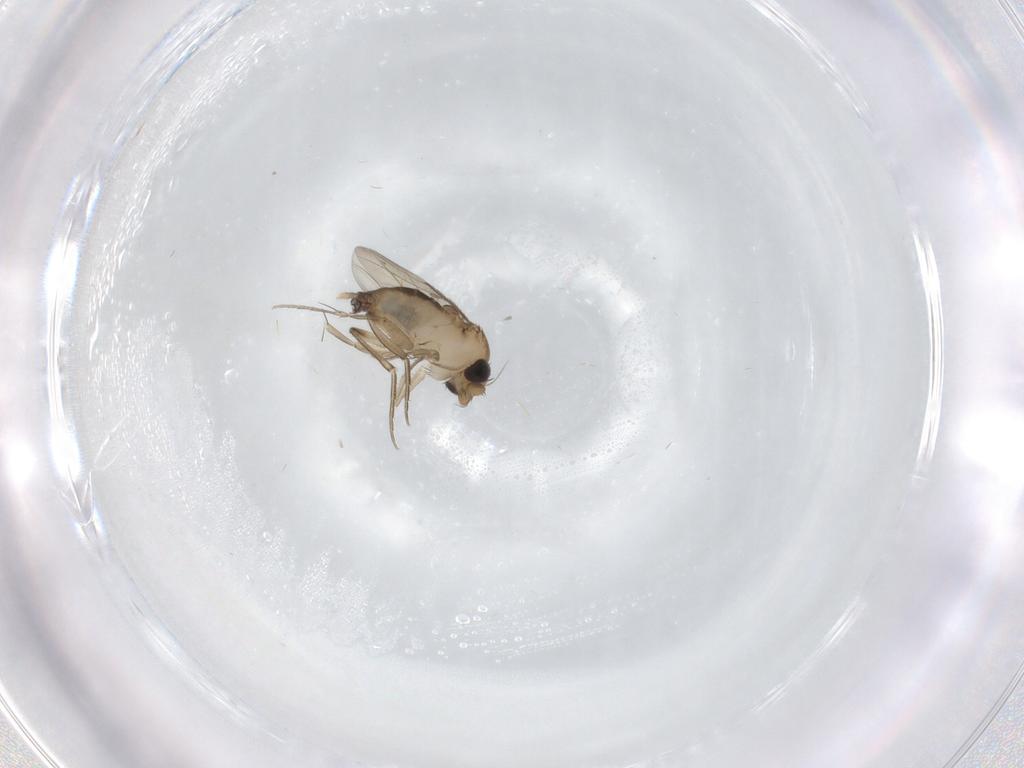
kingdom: Animalia
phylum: Arthropoda
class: Insecta
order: Diptera
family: Phoridae
